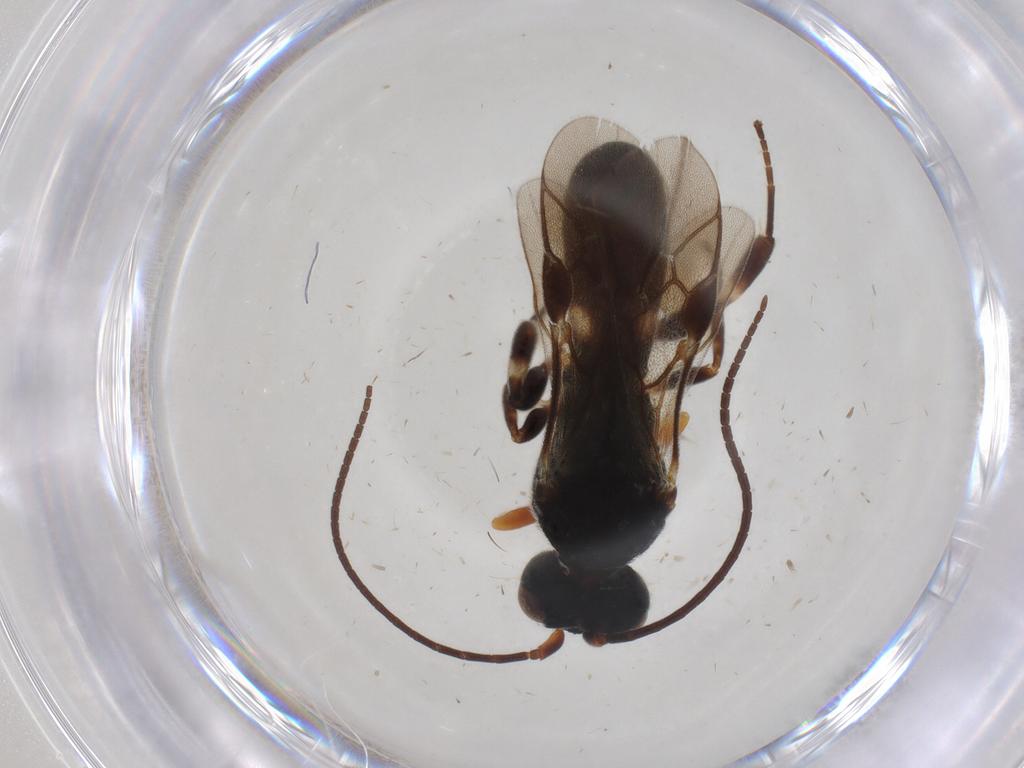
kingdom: Animalia
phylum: Arthropoda
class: Insecta
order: Hymenoptera
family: Apidae
